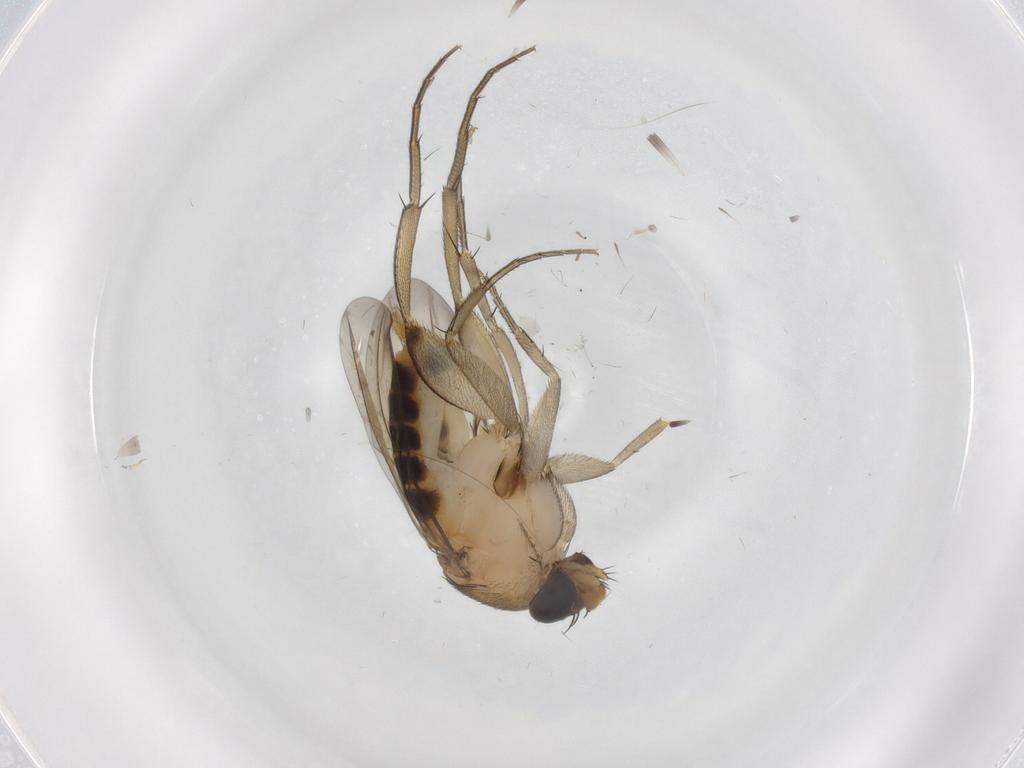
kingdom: Animalia
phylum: Arthropoda
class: Insecta
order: Diptera
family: Phoridae
